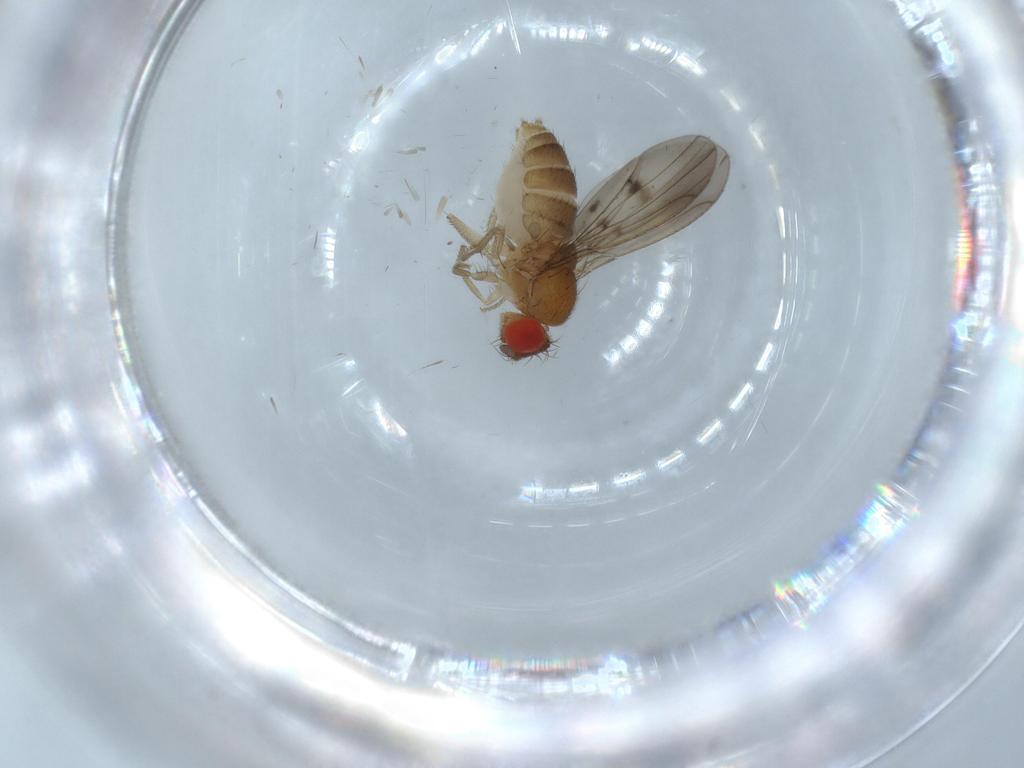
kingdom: Animalia
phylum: Arthropoda
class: Insecta
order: Diptera
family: Drosophilidae
